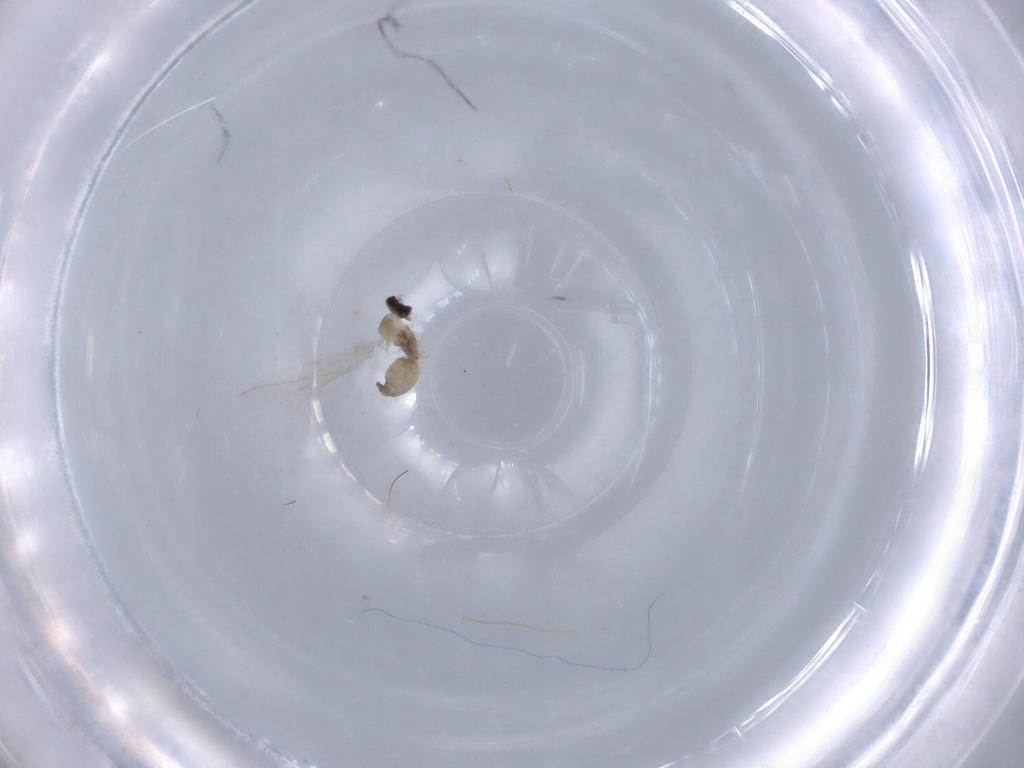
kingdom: Animalia
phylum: Arthropoda
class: Insecta
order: Diptera
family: Cecidomyiidae
